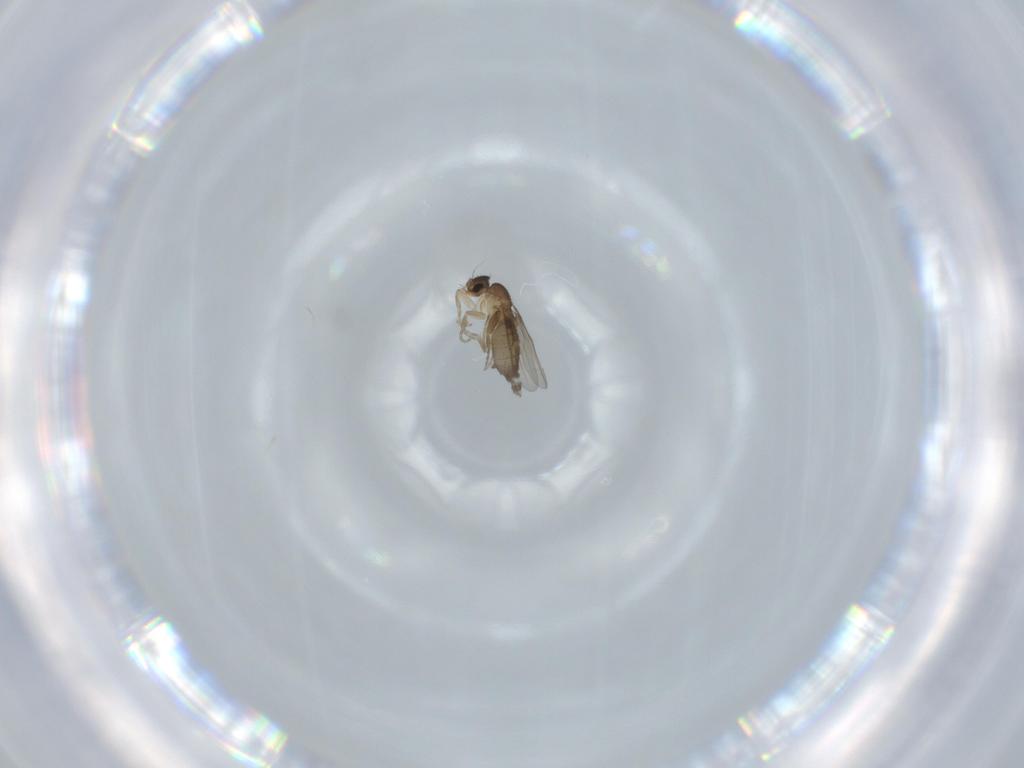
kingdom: Animalia
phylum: Arthropoda
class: Insecta
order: Diptera
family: Phoridae
